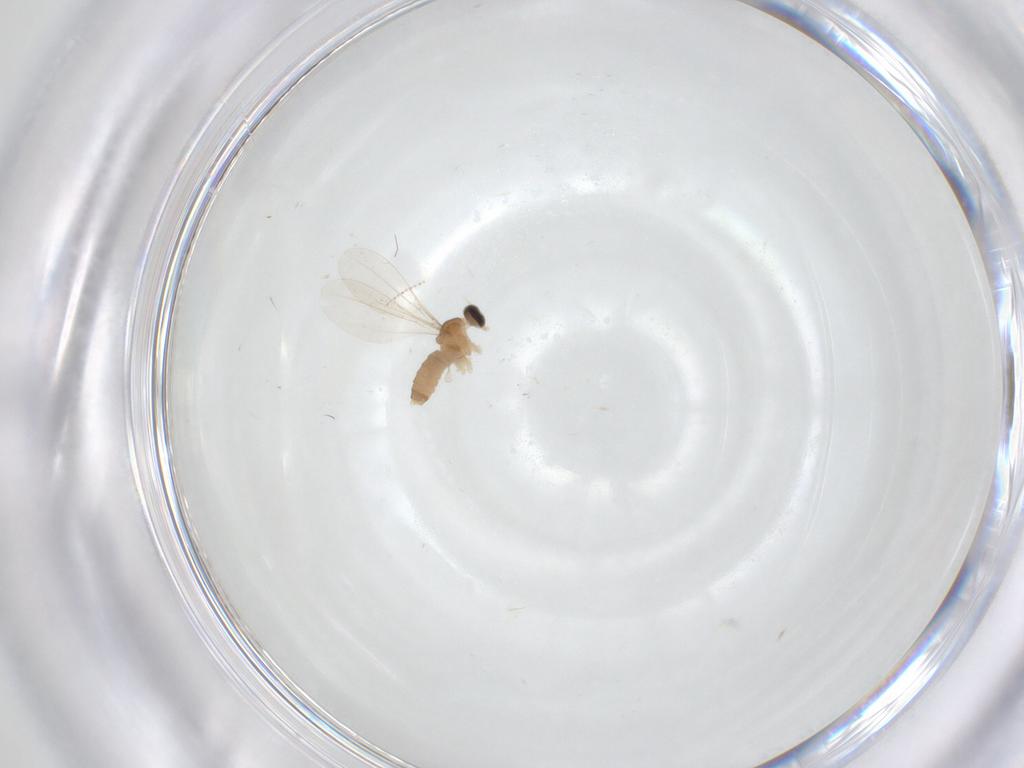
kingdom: Animalia
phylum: Arthropoda
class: Insecta
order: Diptera
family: Cecidomyiidae
